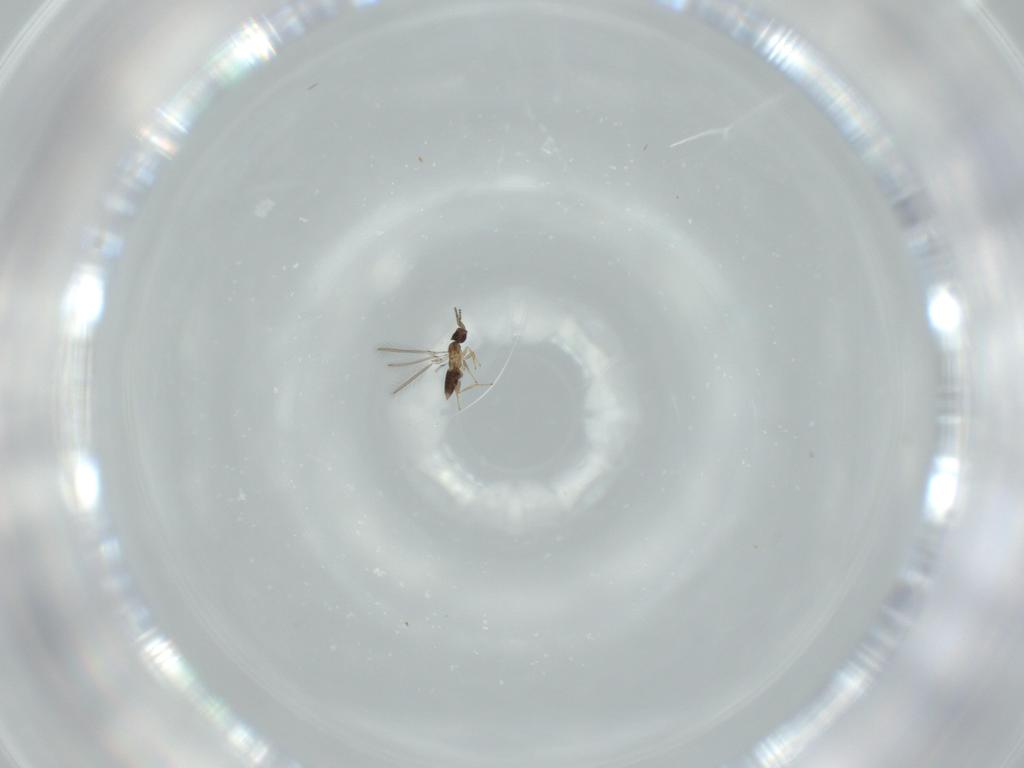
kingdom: Animalia
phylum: Arthropoda
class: Insecta
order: Hymenoptera
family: Mymaridae
